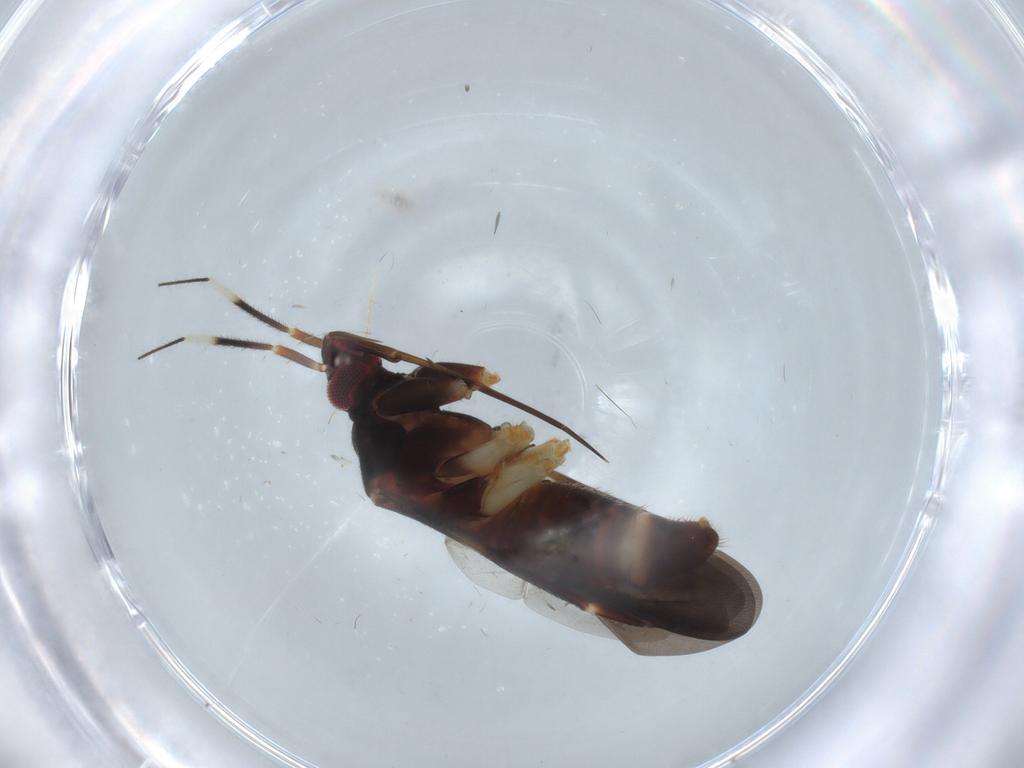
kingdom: Animalia
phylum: Arthropoda
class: Insecta
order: Hemiptera
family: Miridae
